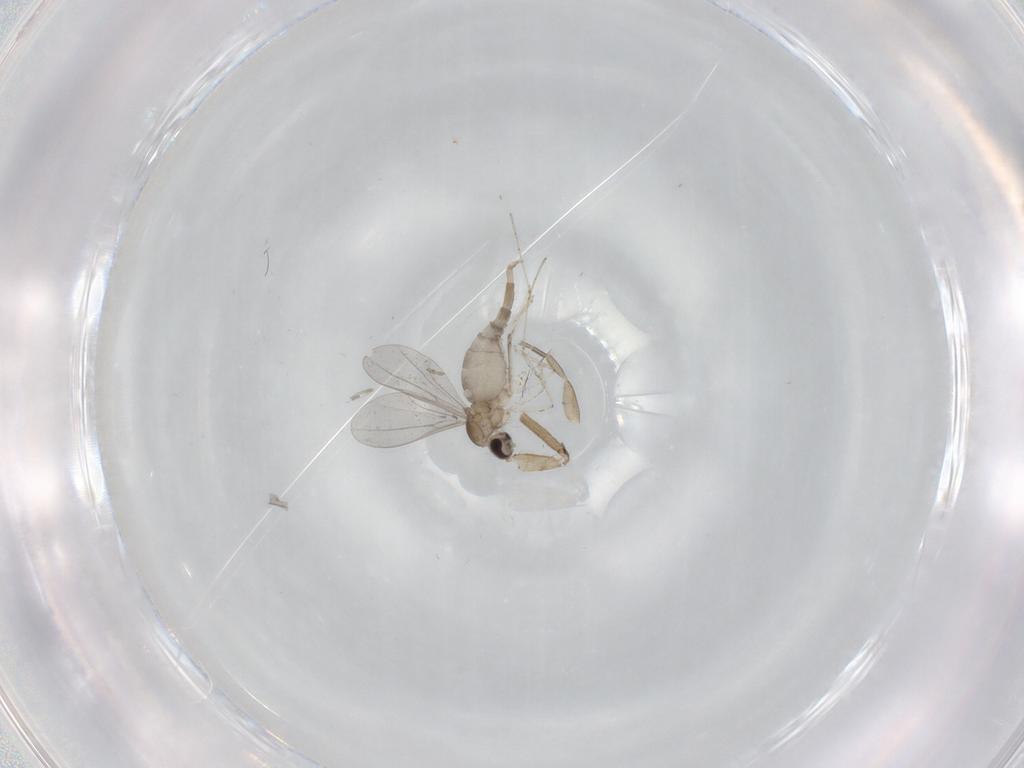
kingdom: Animalia
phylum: Arthropoda
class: Insecta
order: Diptera
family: Cecidomyiidae
